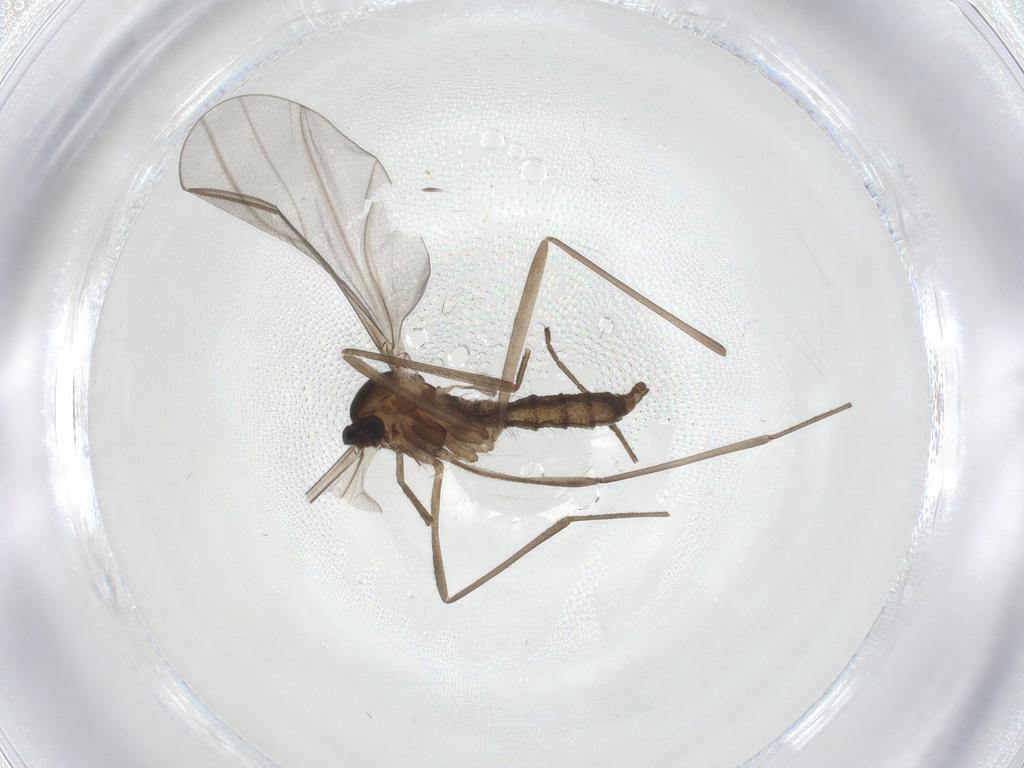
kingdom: Animalia
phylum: Arthropoda
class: Insecta
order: Diptera
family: Cecidomyiidae
